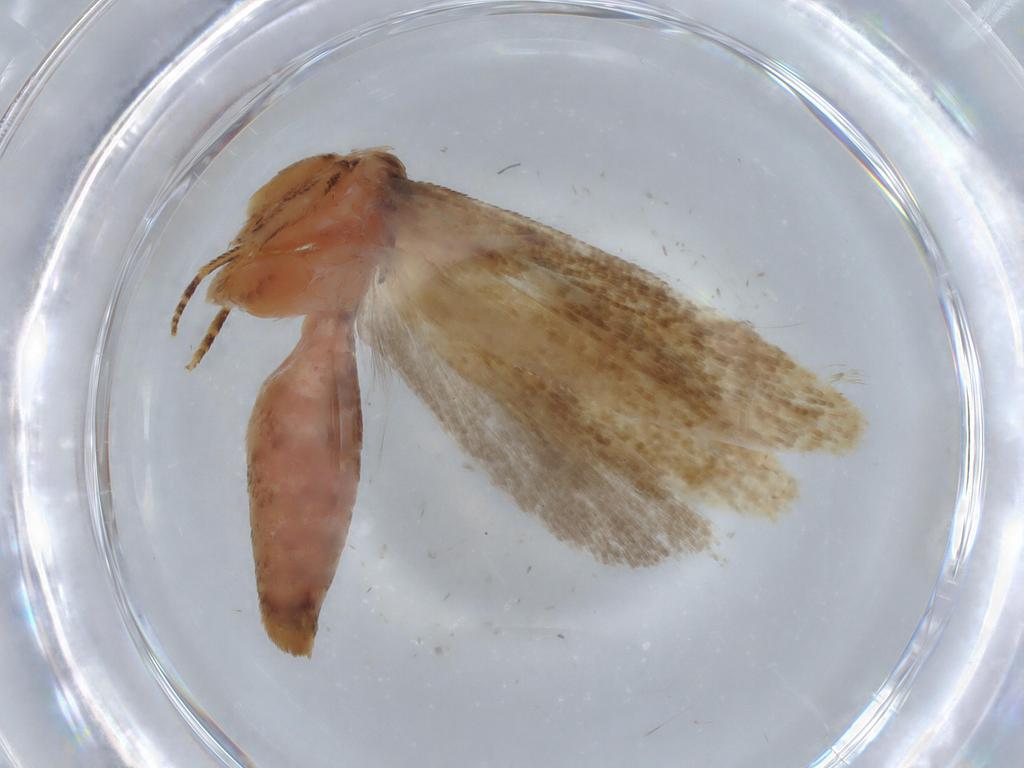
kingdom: Animalia
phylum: Arthropoda
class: Insecta
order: Lepidoptera
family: Gelechiidae
